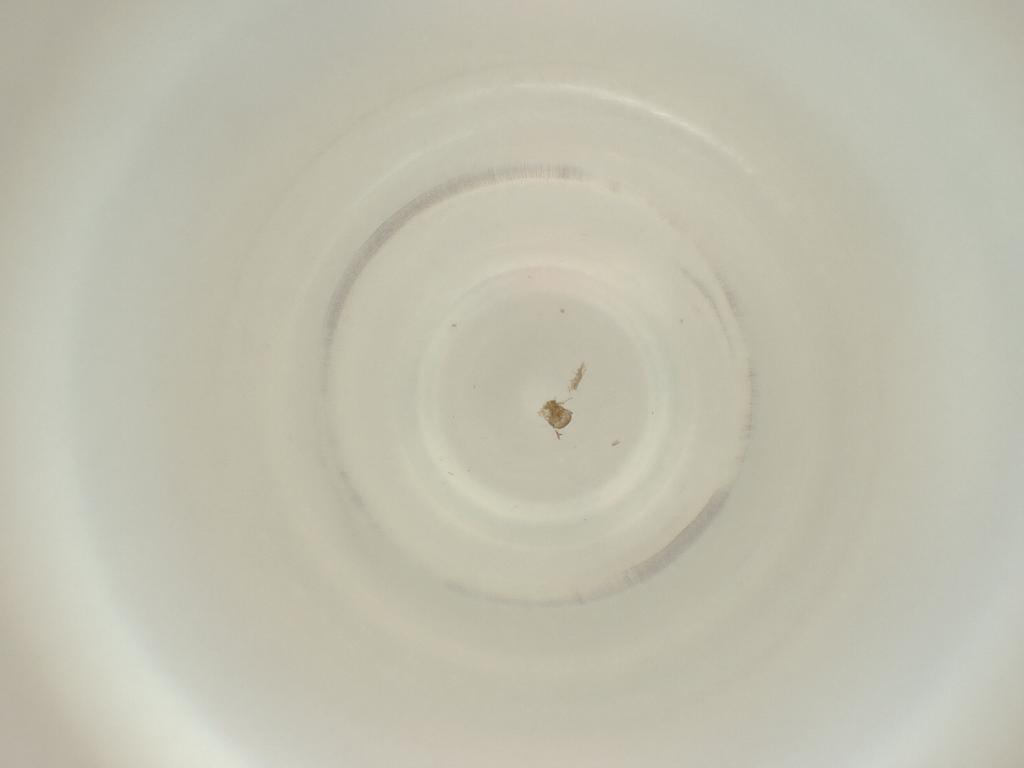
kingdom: Animalia
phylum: Arthropoda
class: Insecta
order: Diptera
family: Cecidomyiidae
